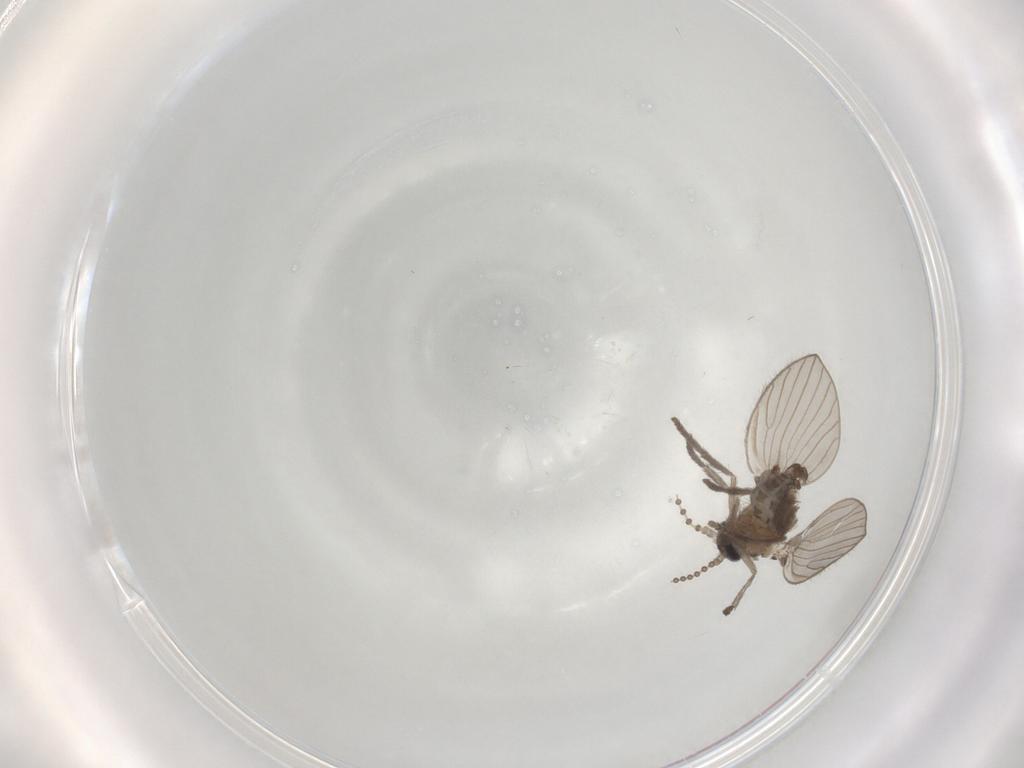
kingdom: Animalia
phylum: Arthropoda
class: Insecta
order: Diptera
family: Psychodidae
